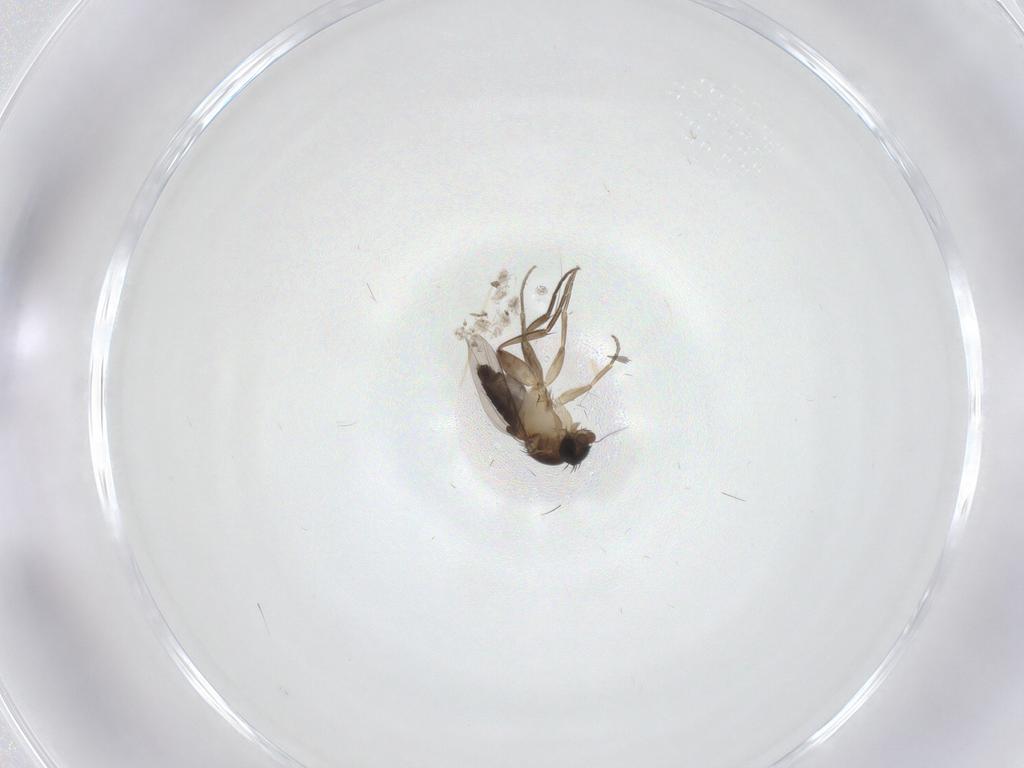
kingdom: Animalia
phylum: Arthropoda
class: Insecta
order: Diptera
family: Phoridae
